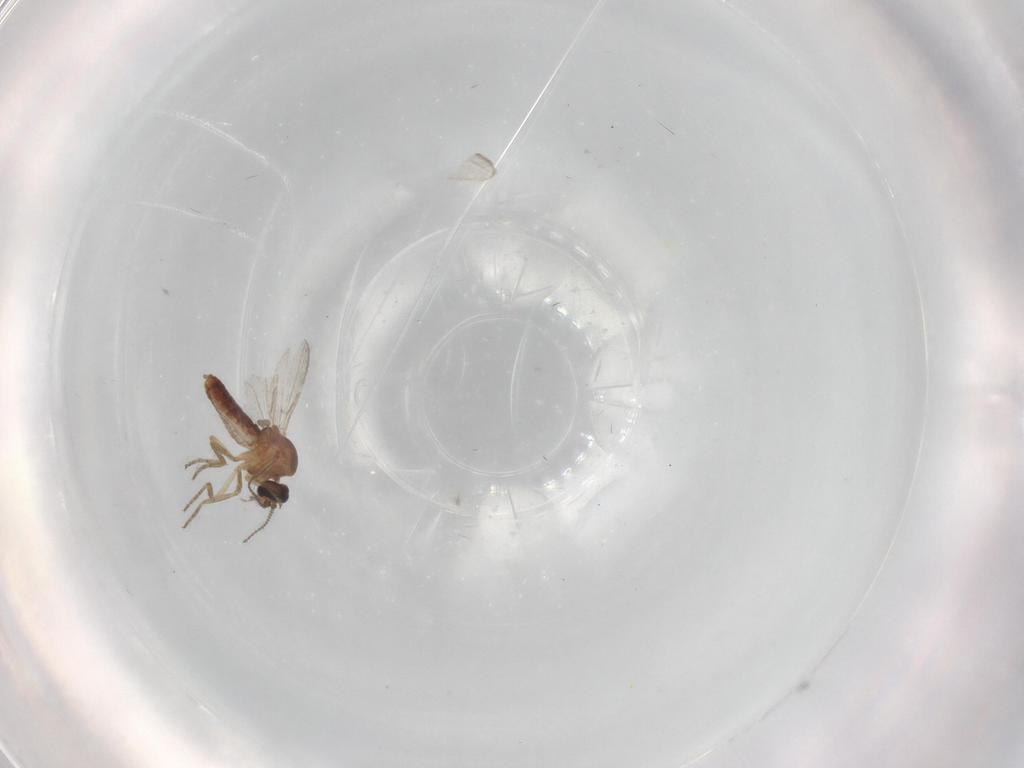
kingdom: Animalia
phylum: Arthropoda
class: Insecta
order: Diptera
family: Ceratopogonidae
